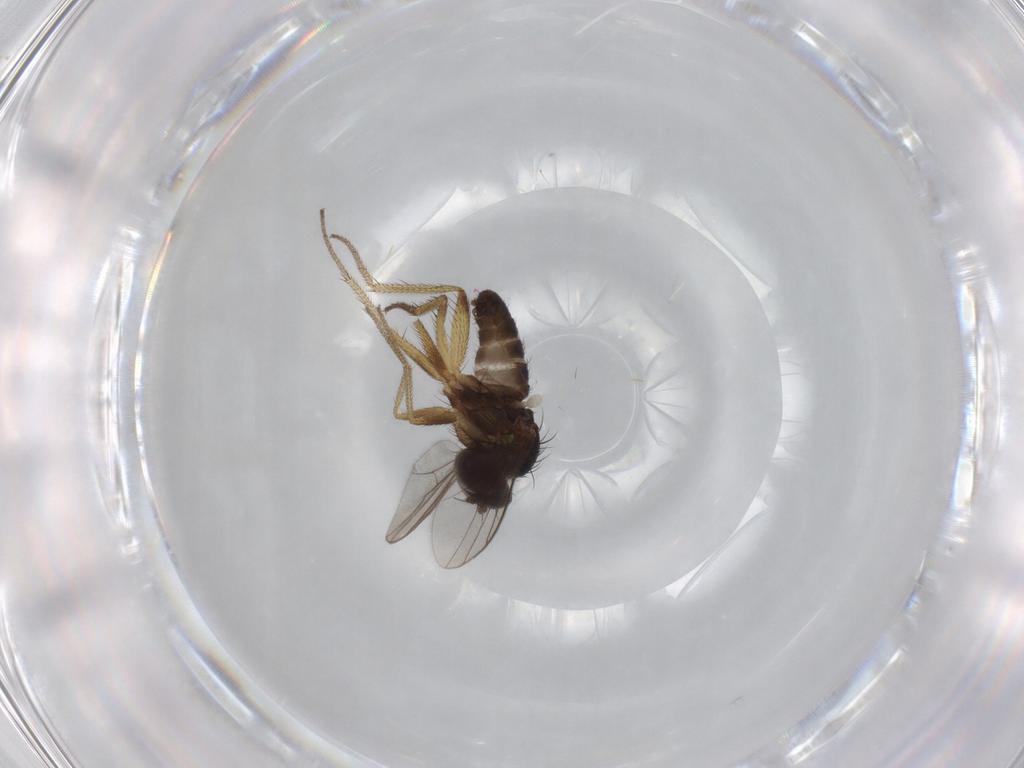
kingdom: Animalia
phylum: Arthropoda
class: Insecta
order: Diptera
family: Dolichopodidae
